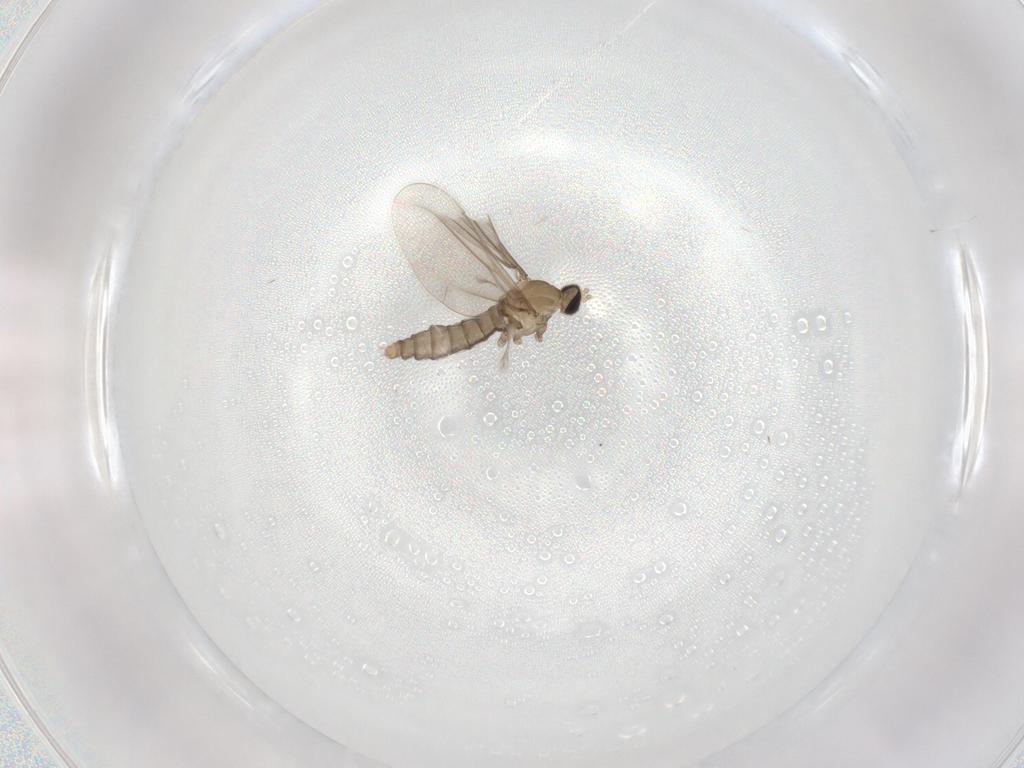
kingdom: Animalia
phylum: Arthropoda
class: Insecta
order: Diptera
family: Cecidomyiidae
